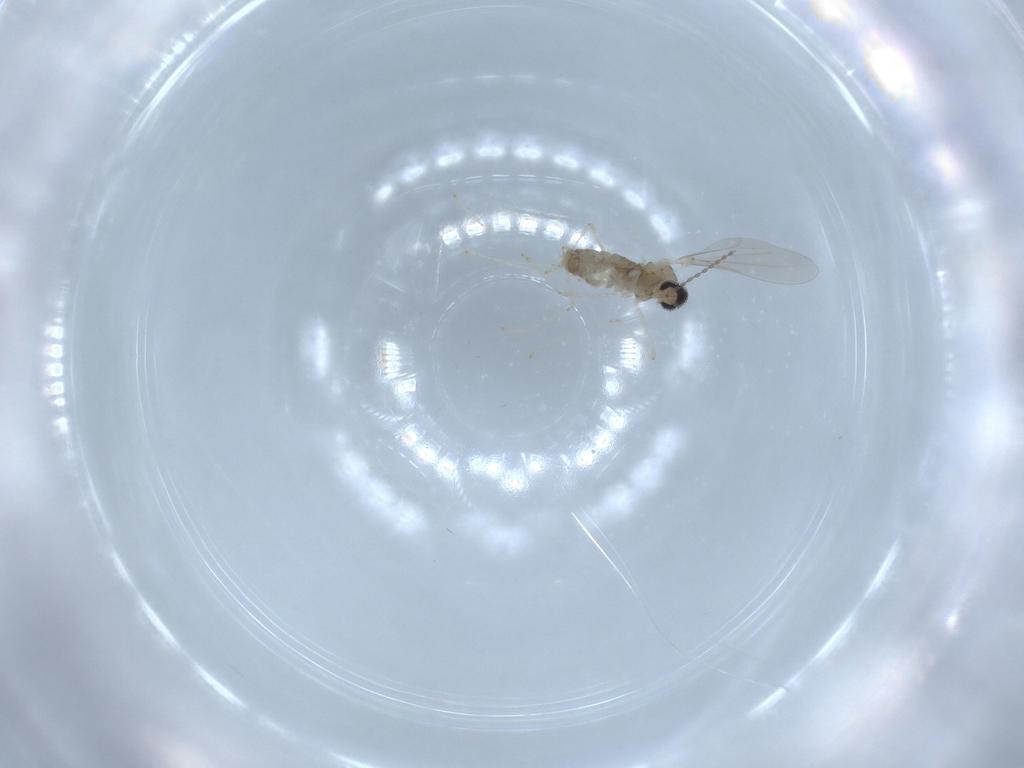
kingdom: Animalia
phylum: Arthropoda
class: Insecta
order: Diptera
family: Cecidomyiidae
